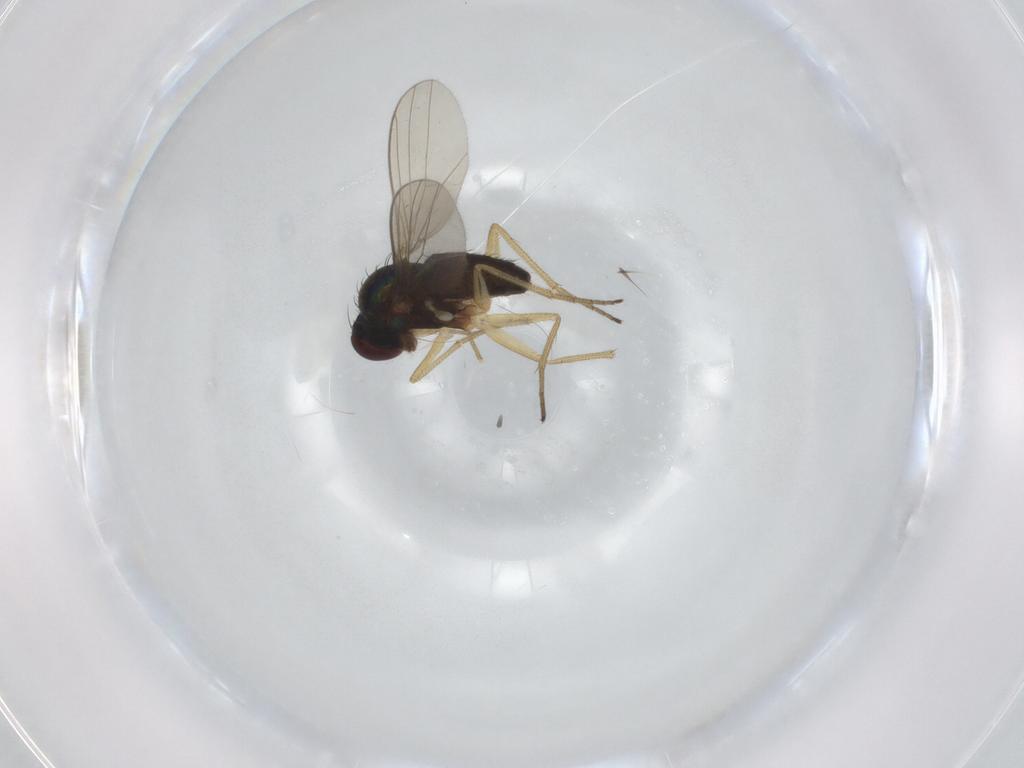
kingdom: Animalia
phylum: Arthropoda
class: Insecta
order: Diptera
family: Dolichopodidae
